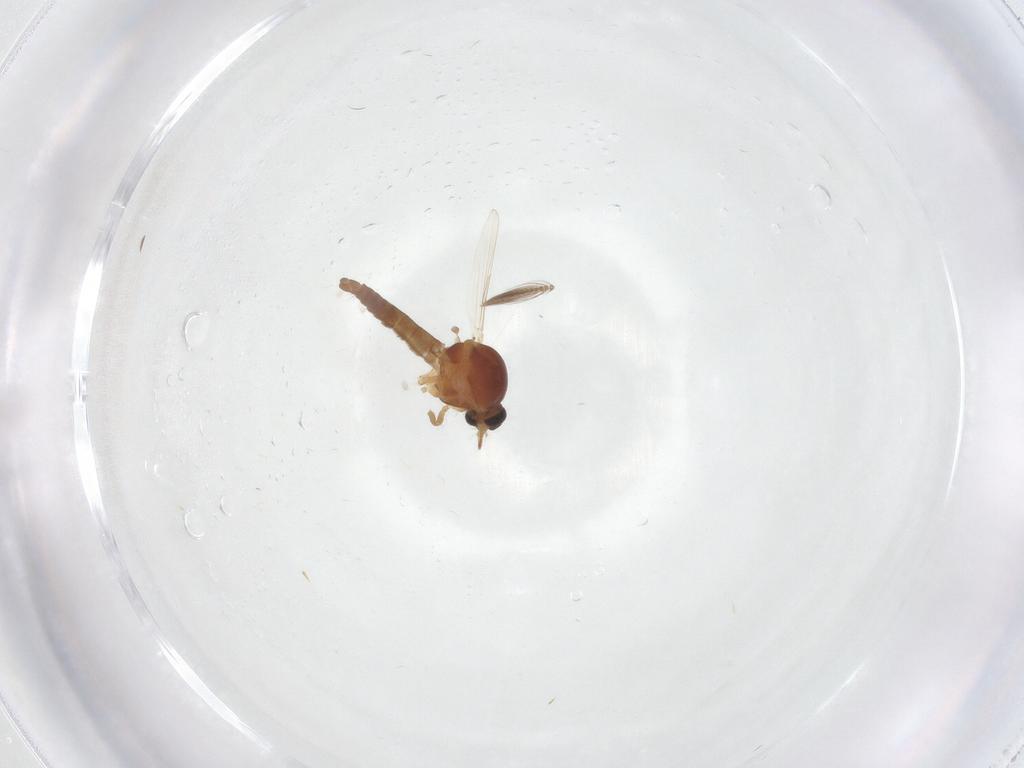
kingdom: Animalia
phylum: Arthropoda
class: Insecta
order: Diptera
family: Ceratopogonidae
